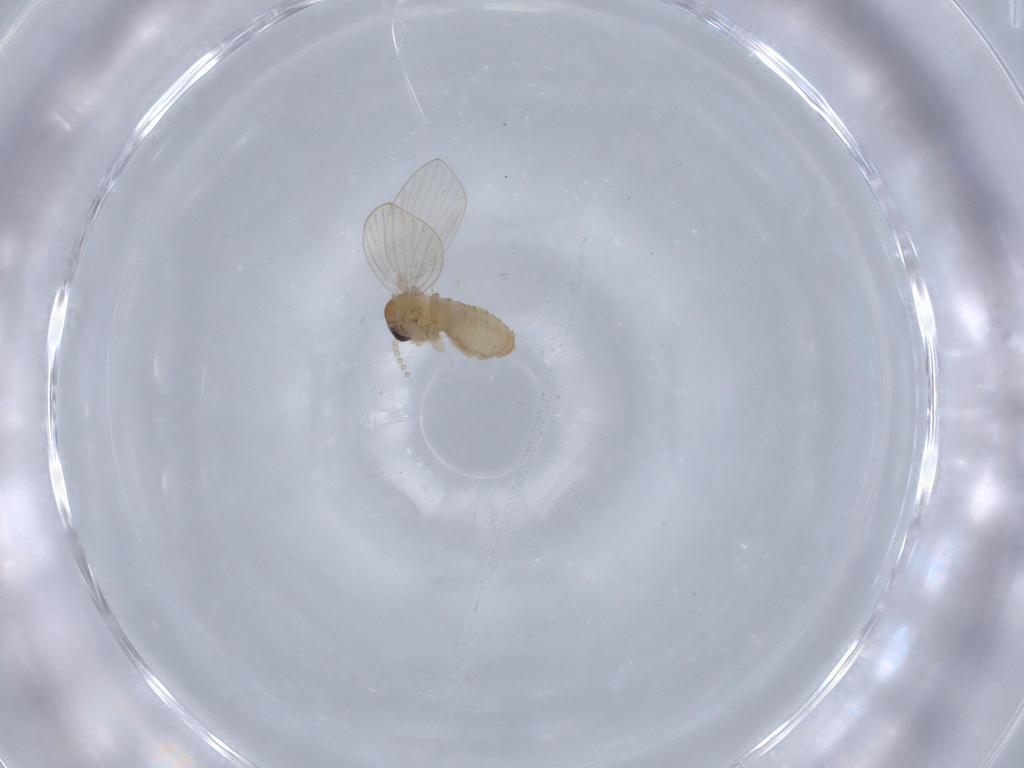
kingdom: Animalia
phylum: Arthropoda
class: Insecta
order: Diptera
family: Psychodidae
